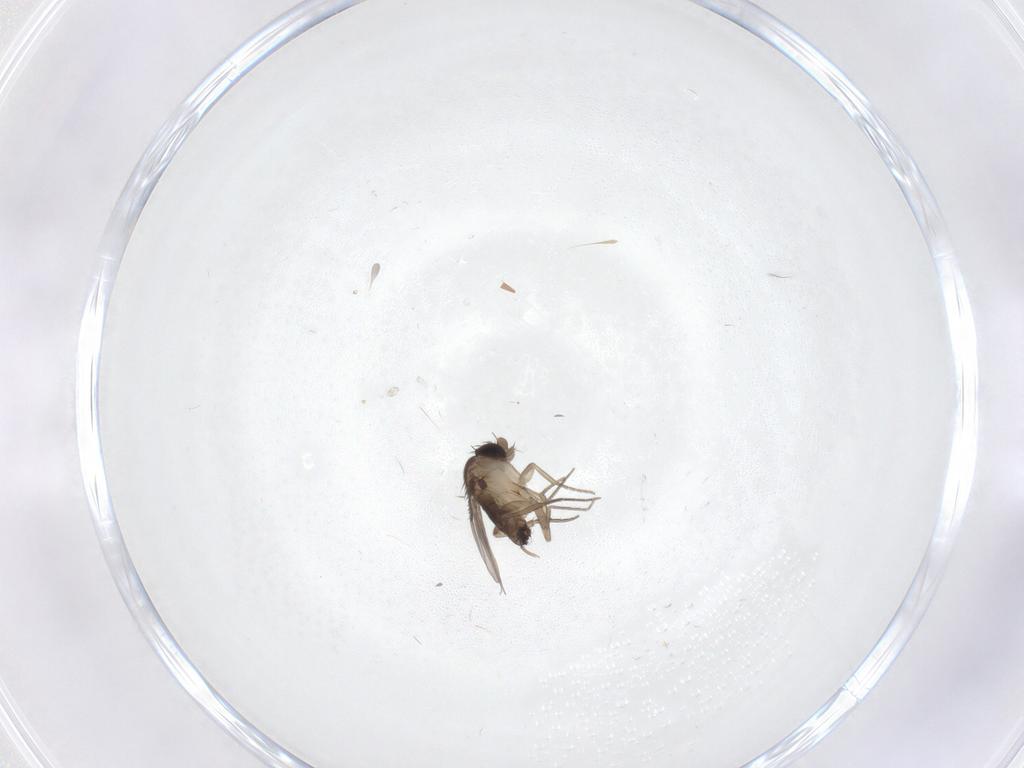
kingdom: Animalia
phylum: Arthropoda
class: Insecta
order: Diptera
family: Phoridae
